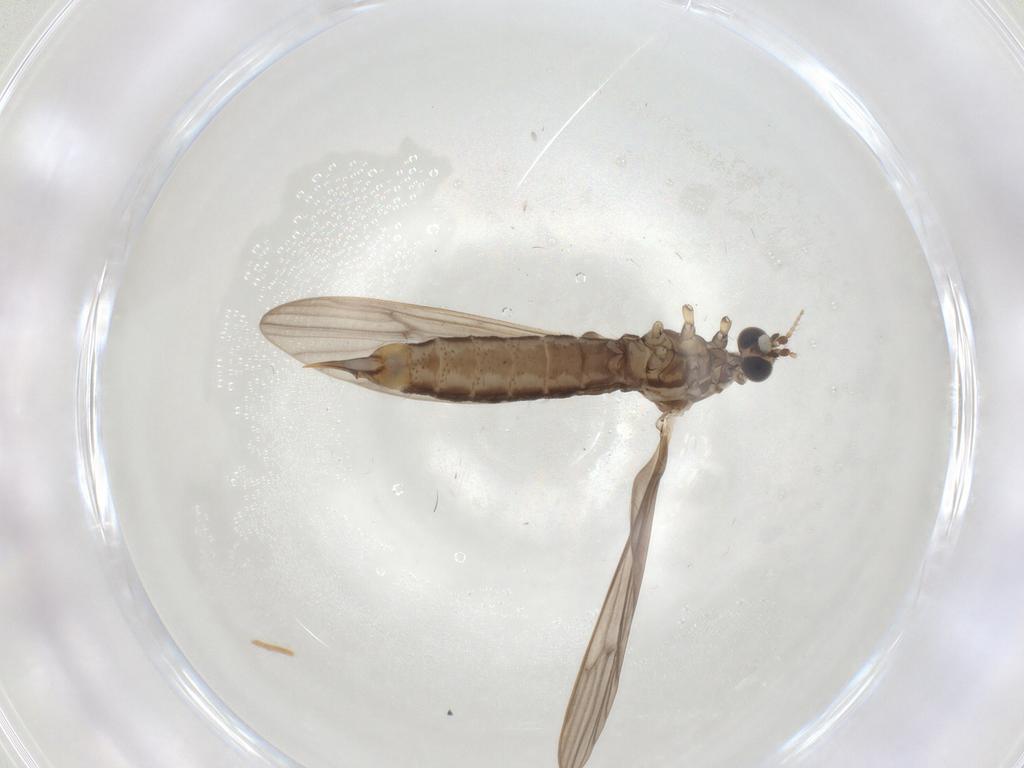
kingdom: Animalia
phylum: Arthropoda
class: Insecta
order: Diptera
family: Limoniidae
